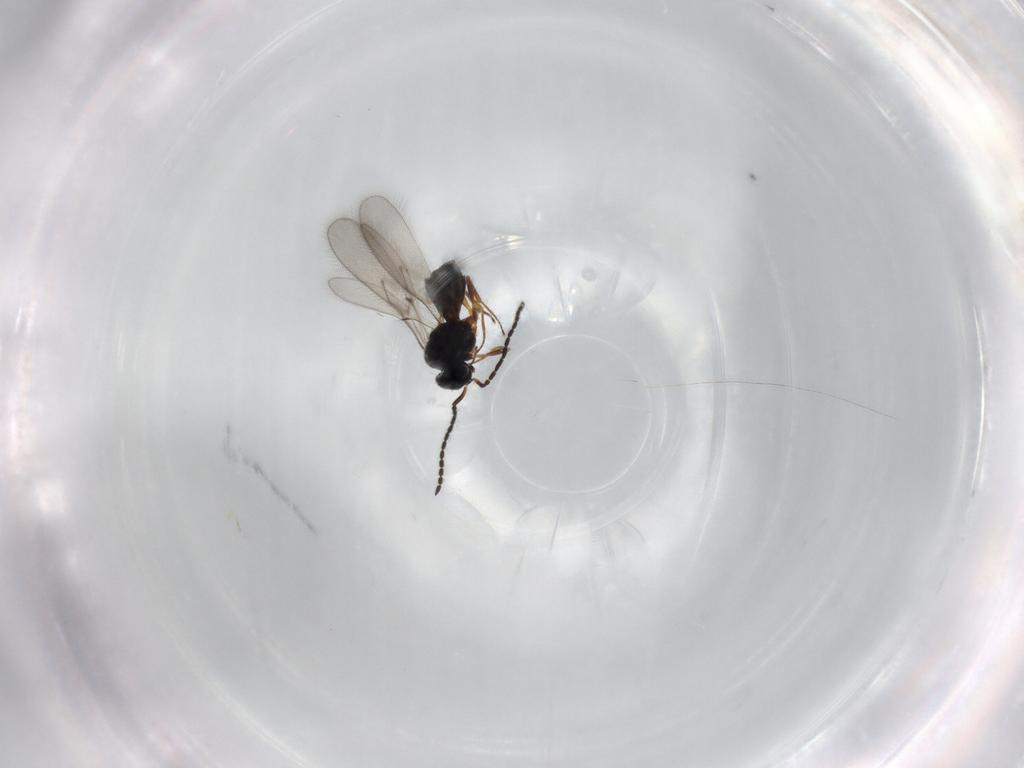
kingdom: Animalia
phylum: Arthropoda
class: Insecta
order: Hymenoptera
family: Scelionidae
